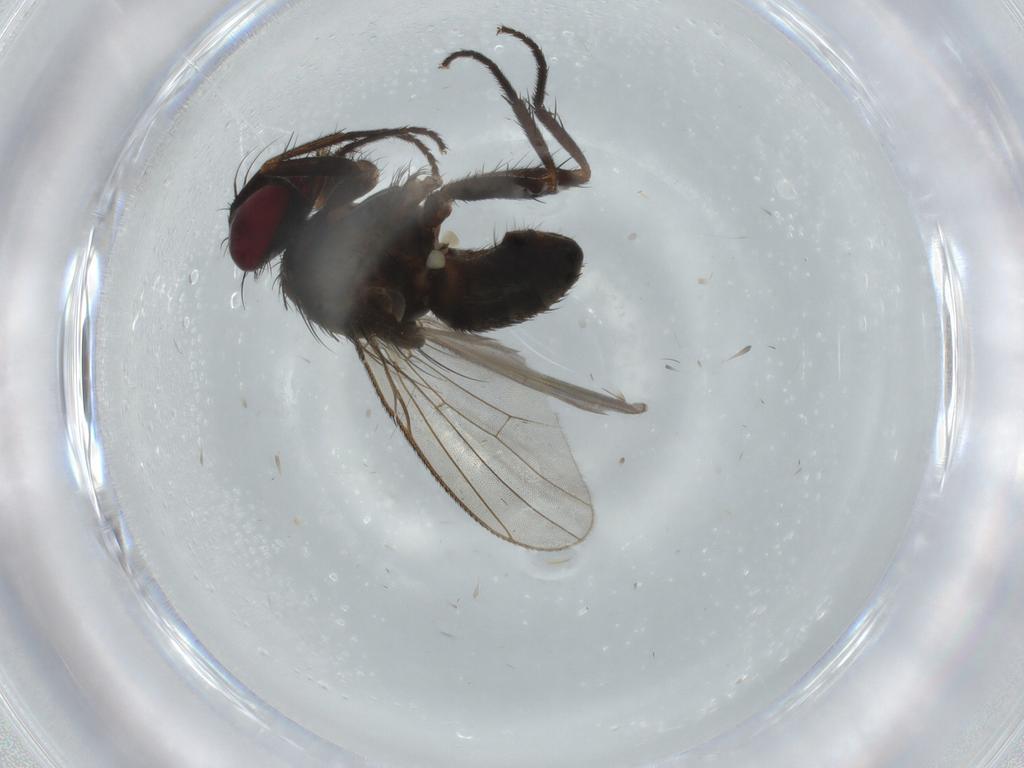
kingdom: Animalia
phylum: Arthropoda
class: Insecta
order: Diptera
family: Muscidae
